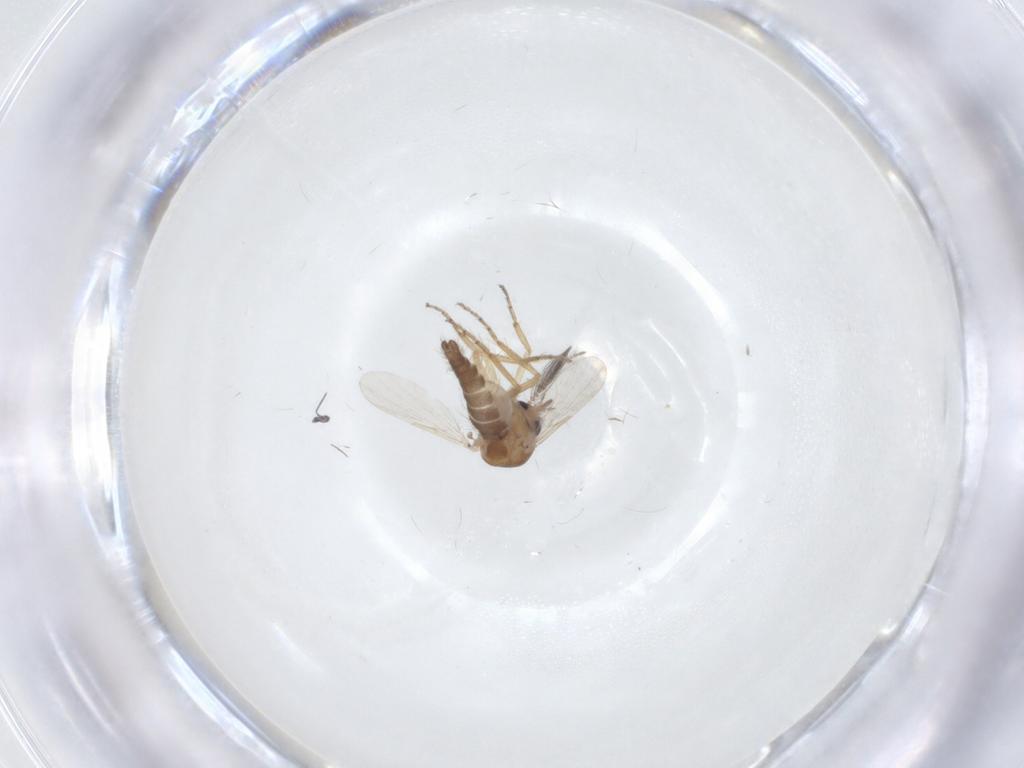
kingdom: Animalia
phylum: Arthropoda
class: Insecta
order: Diptera
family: Ceratopogonidae
